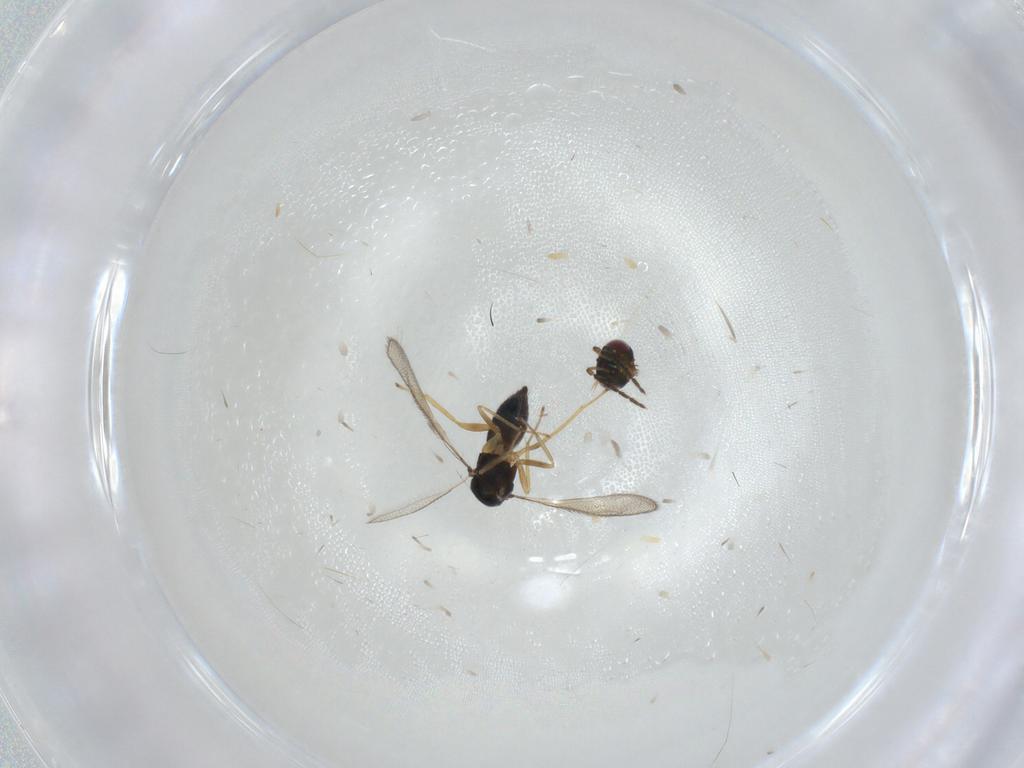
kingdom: Animalia
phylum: Arthropoda
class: Insecta
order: Hymenoptera
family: Eulophidae
